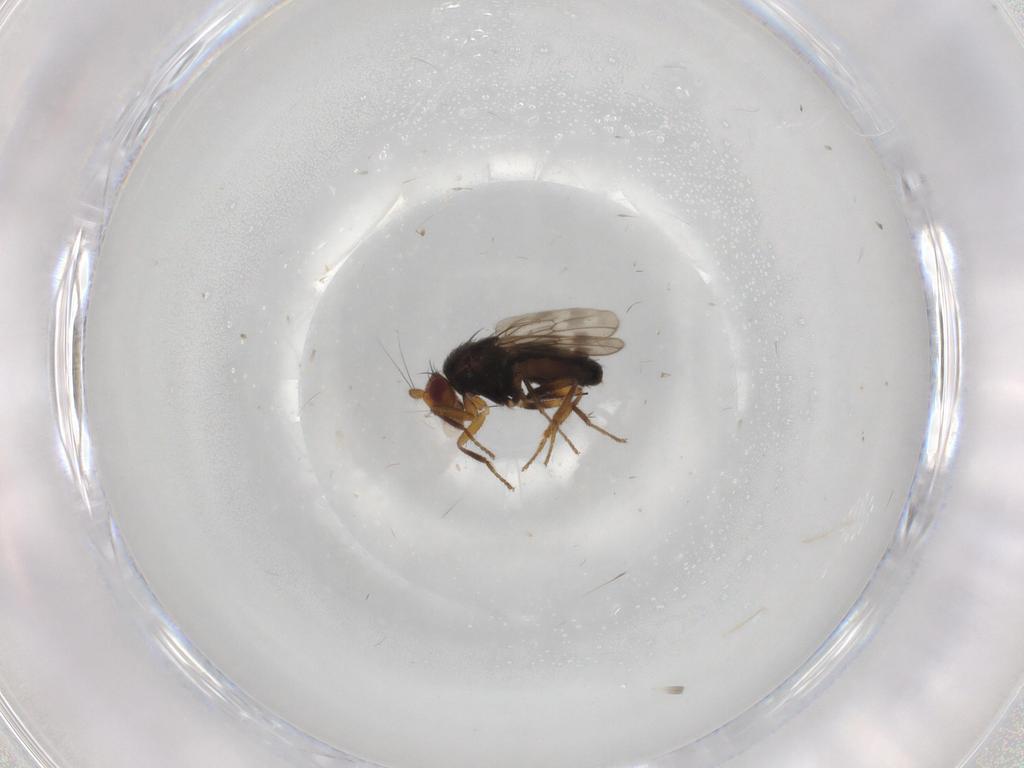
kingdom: Animalia
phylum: Arthropoda
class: Insecta
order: Diptera
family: Sphaeroceridae
